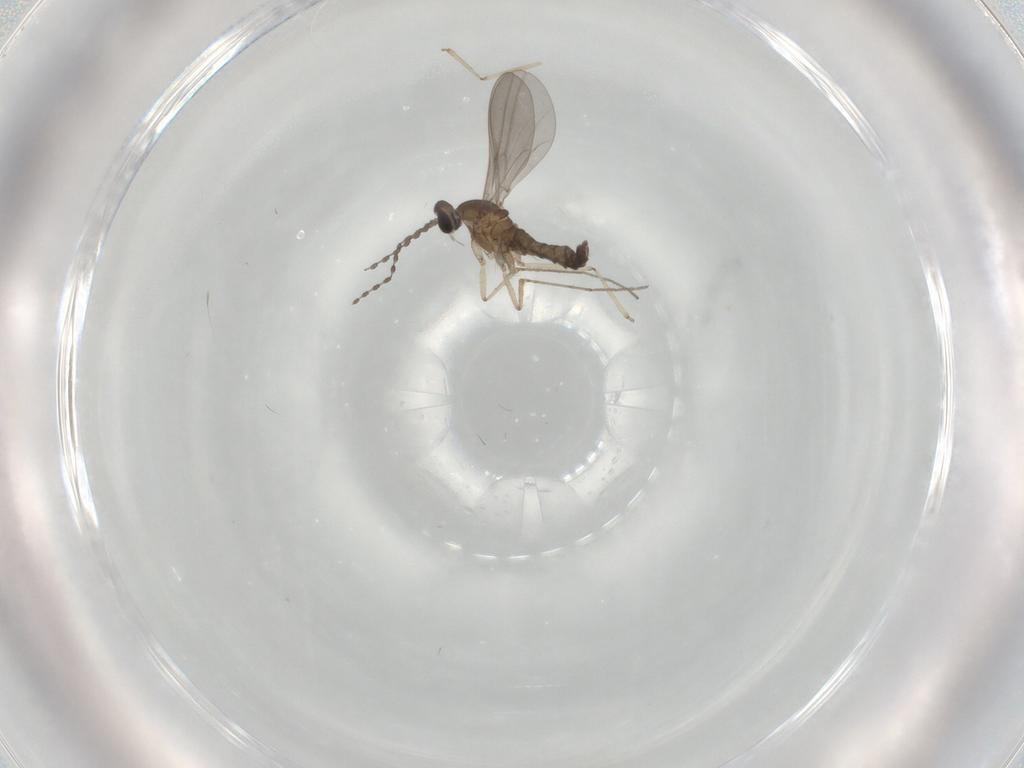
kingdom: Animalia
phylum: Arthropoda
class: Insecta
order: Diptera
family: Cecidomyiidae
